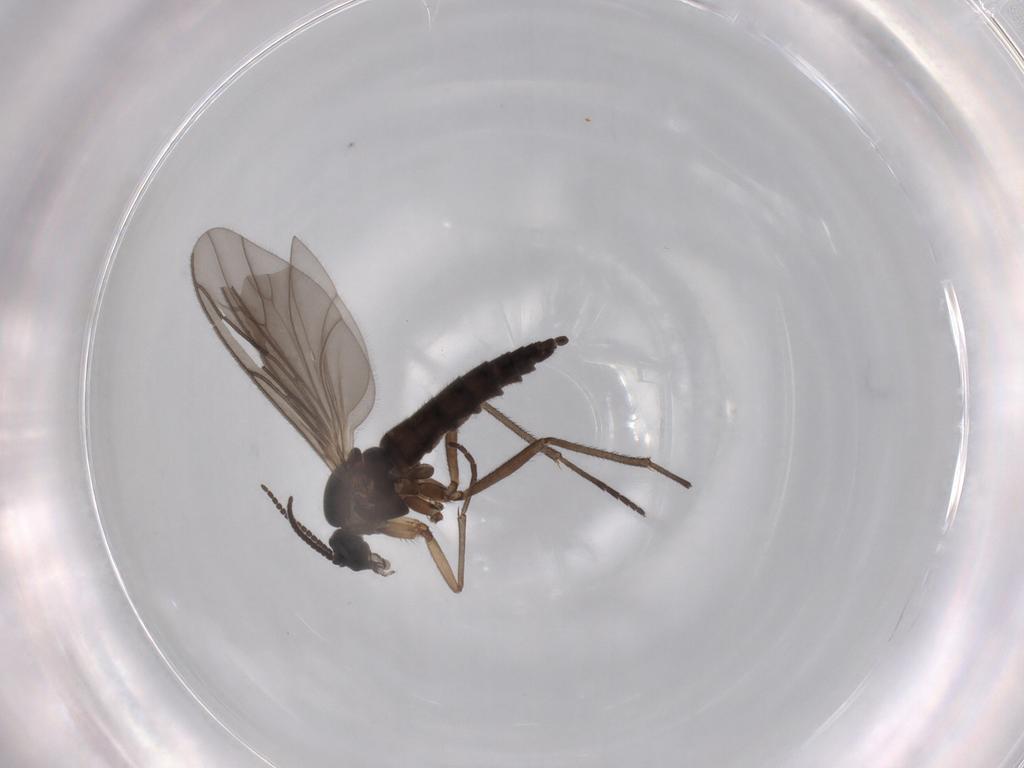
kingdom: Animalia
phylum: Arthropoda
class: Insecta
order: Diptera
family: Sciaridae
